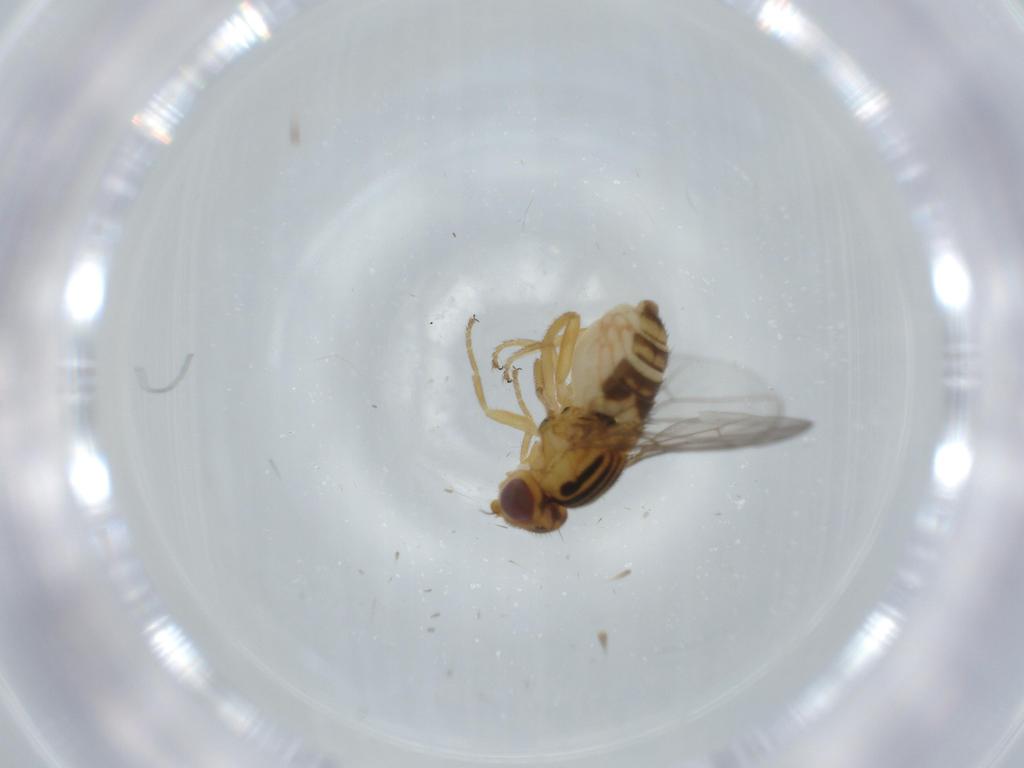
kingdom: Animalia
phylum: Arthropoda
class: Insecta
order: Diptera
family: Chloropidae
